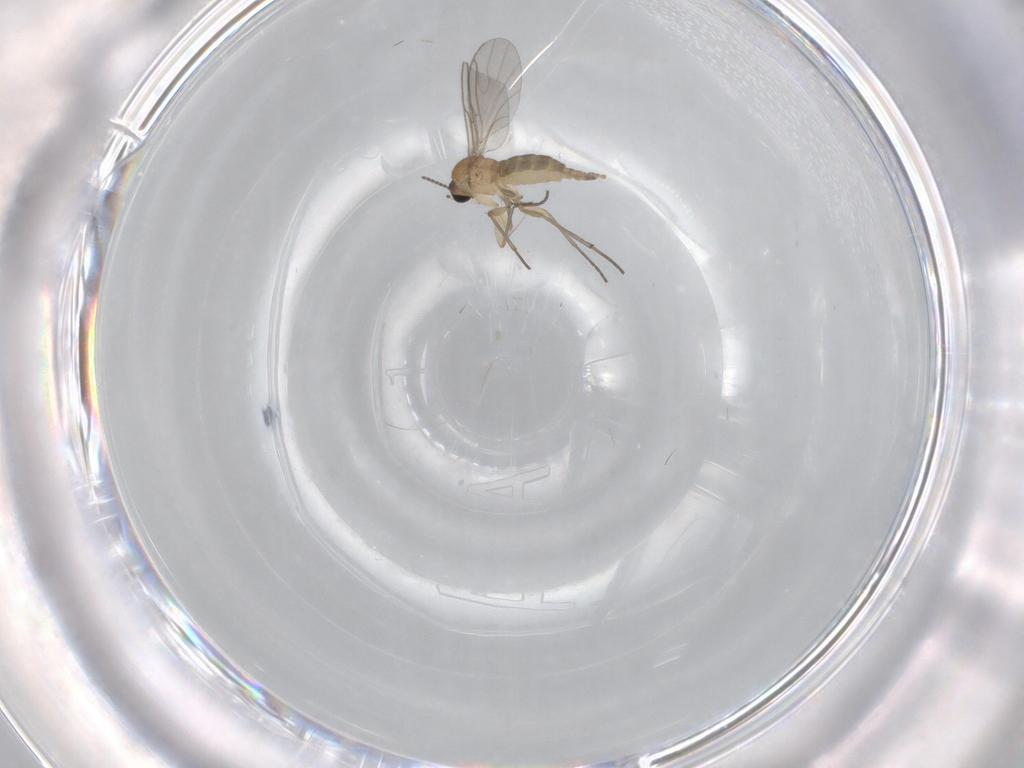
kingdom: Animalia
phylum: Arthropoda
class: Insecta
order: Diptera
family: Sciaridae
